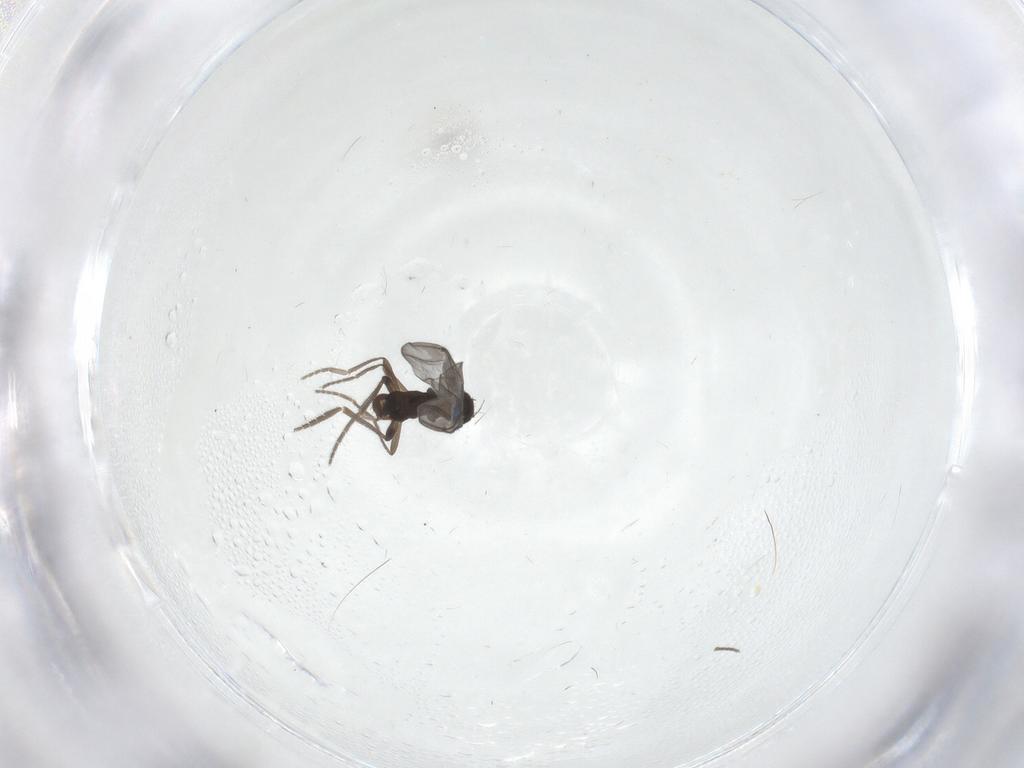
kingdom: Animalia
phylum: Arthropoda
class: Insecta
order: Diptera
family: Phoridae
